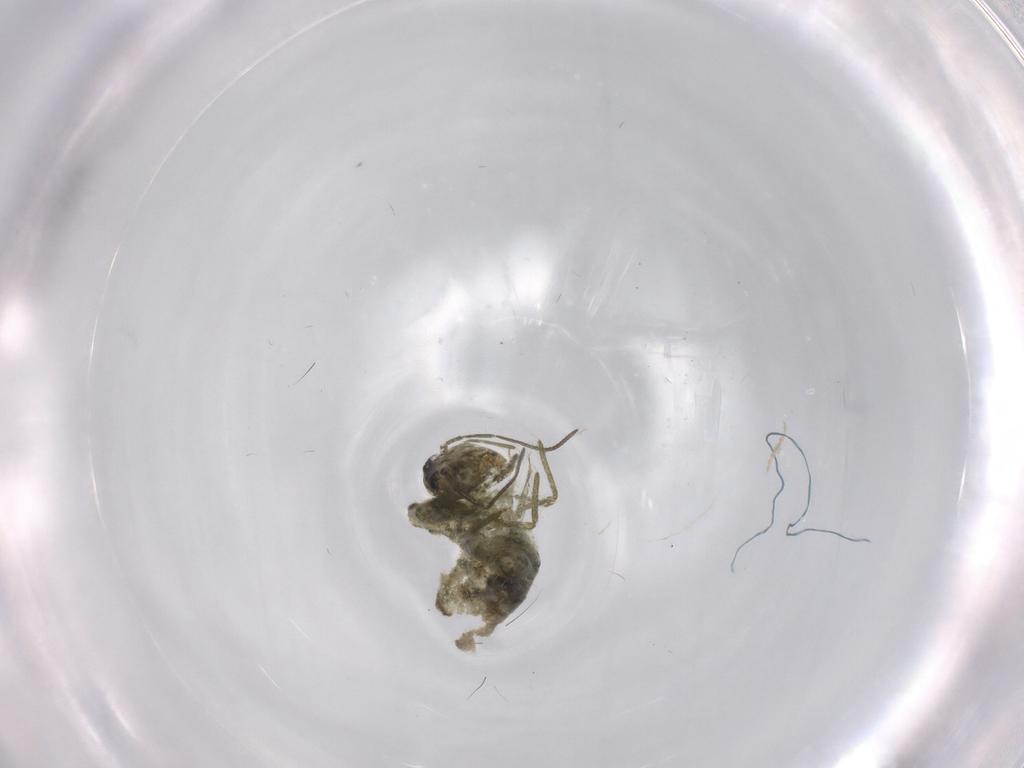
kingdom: Animalia
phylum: Arthropoda
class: Collembola
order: Symphypleona
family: Sminthuridae
